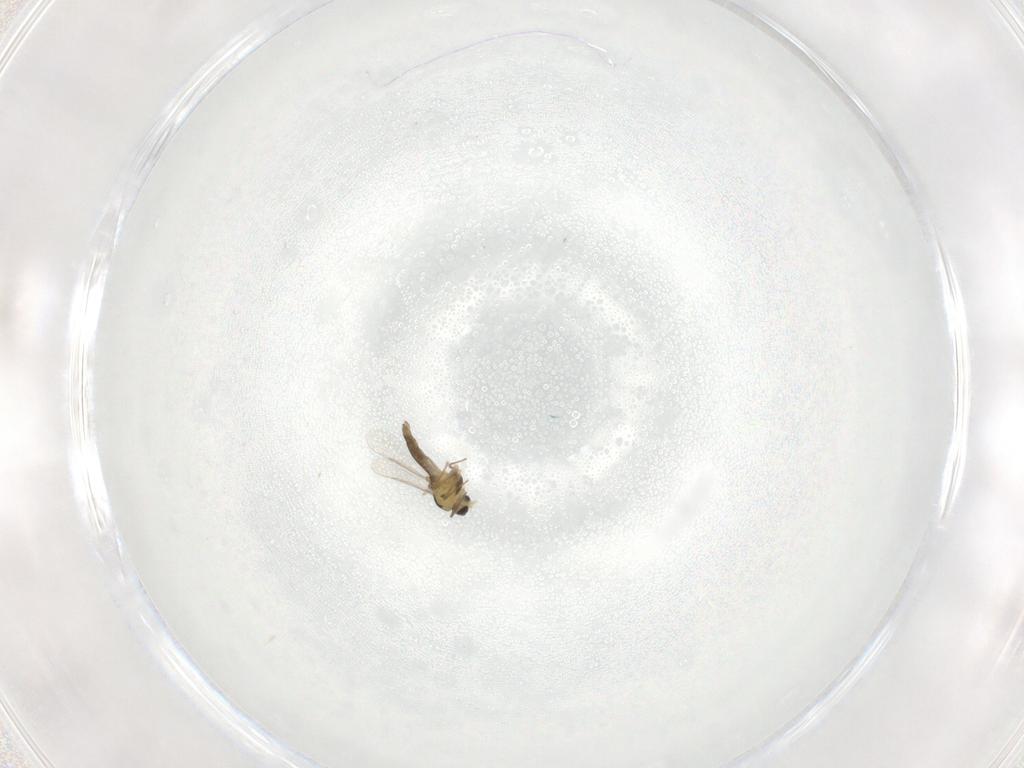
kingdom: Animalia
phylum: Arthropoda
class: Insecta
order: Diptera
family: Chironomidae
